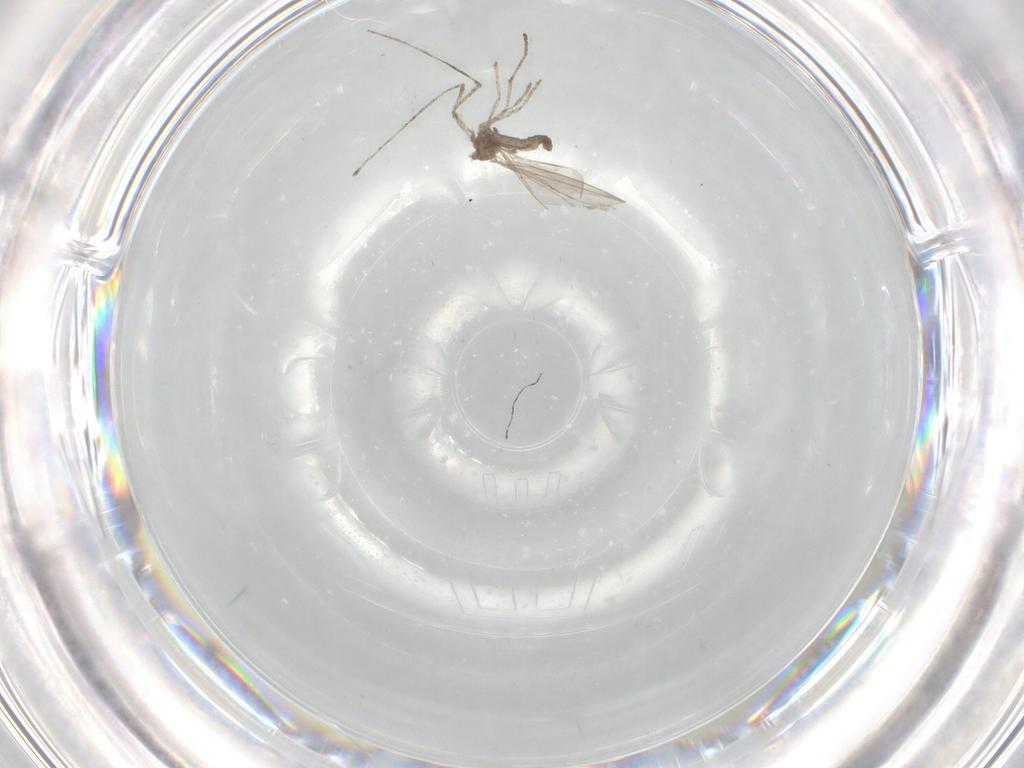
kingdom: Animalia
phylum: Arthropoda
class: Insecta
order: Diptera
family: Cecidomyiidae
